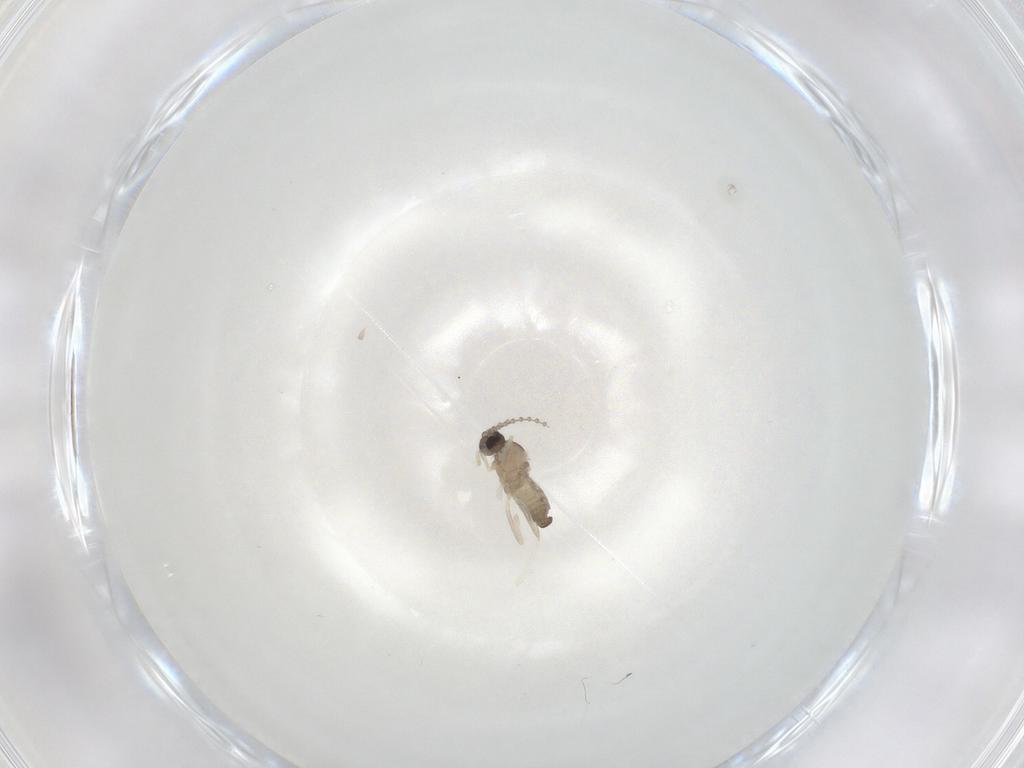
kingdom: Animalia
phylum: Arthropoda
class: Insecta
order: Diptera
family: Cecidomyiidae
